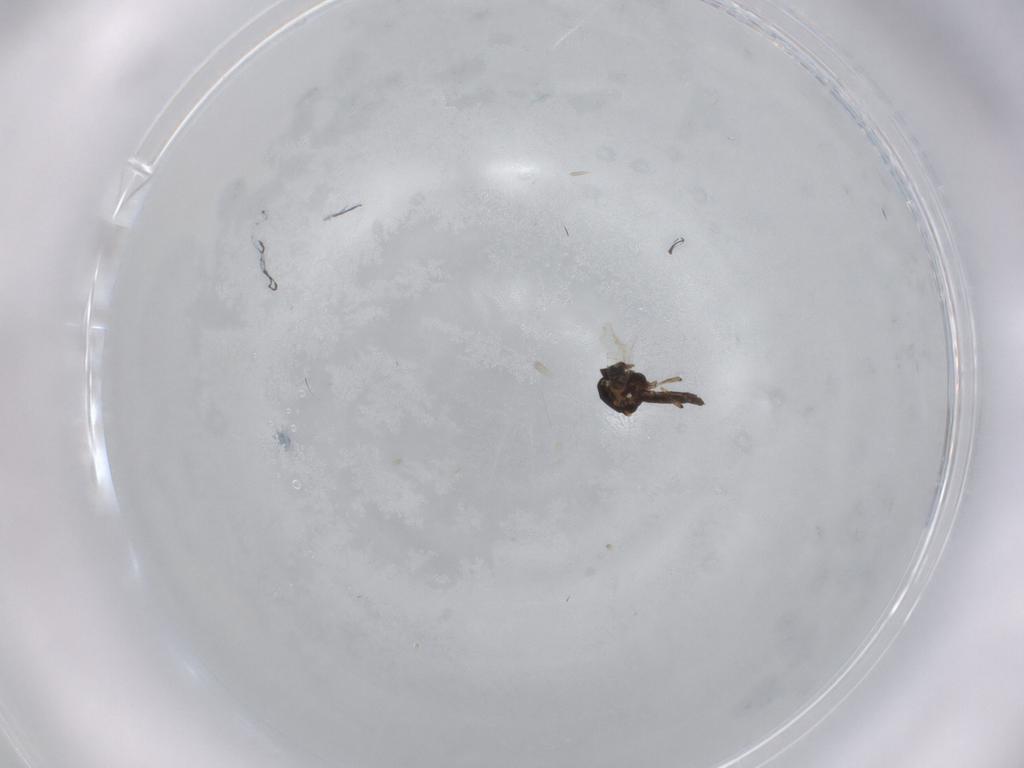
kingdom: Animalia
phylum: Arthropoda
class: Insecta
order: Diptera
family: Ceratopogonidae
